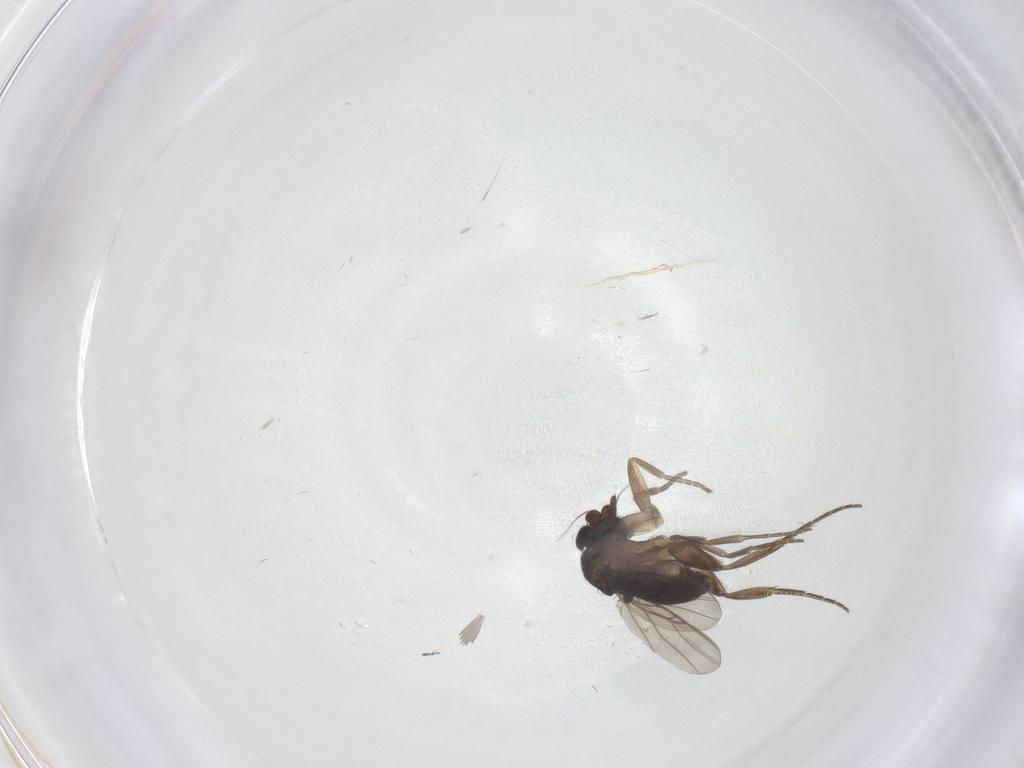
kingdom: Animalia
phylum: Arthropoda
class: Insecta
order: Diptera
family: Phoridae
